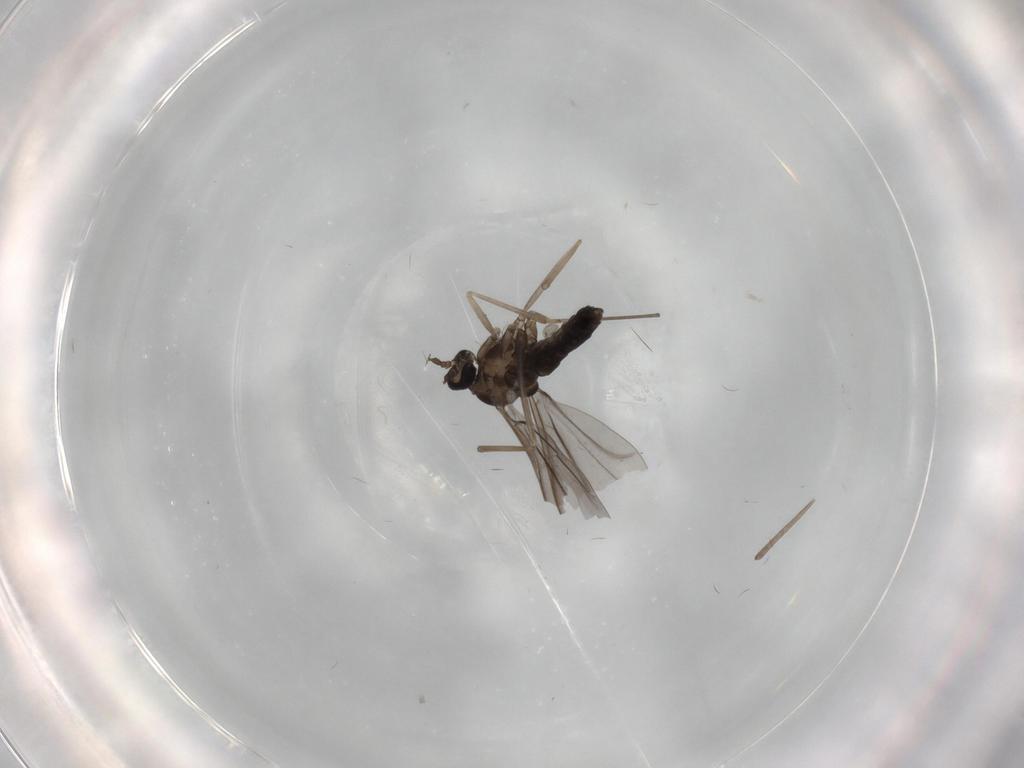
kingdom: Animalia
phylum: Arthropoda
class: Insecta
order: Diptera
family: Cecidomyiidae
